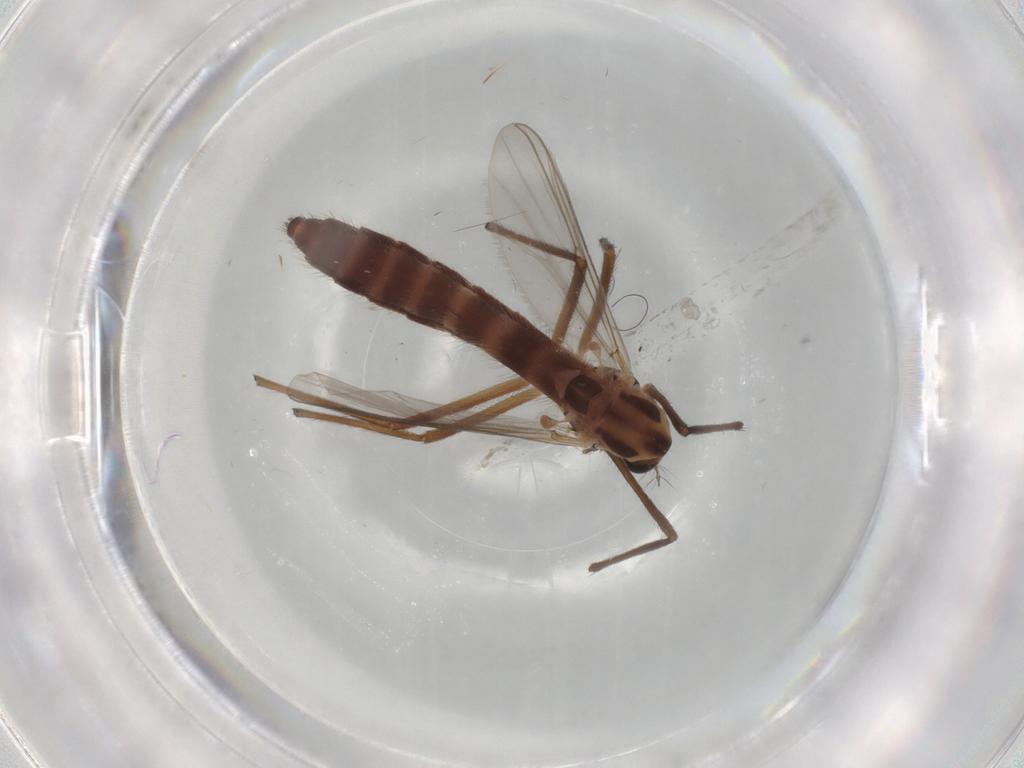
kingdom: Animalia
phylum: Arthropoda
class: Insecta
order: Diptera
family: Chironomidae
